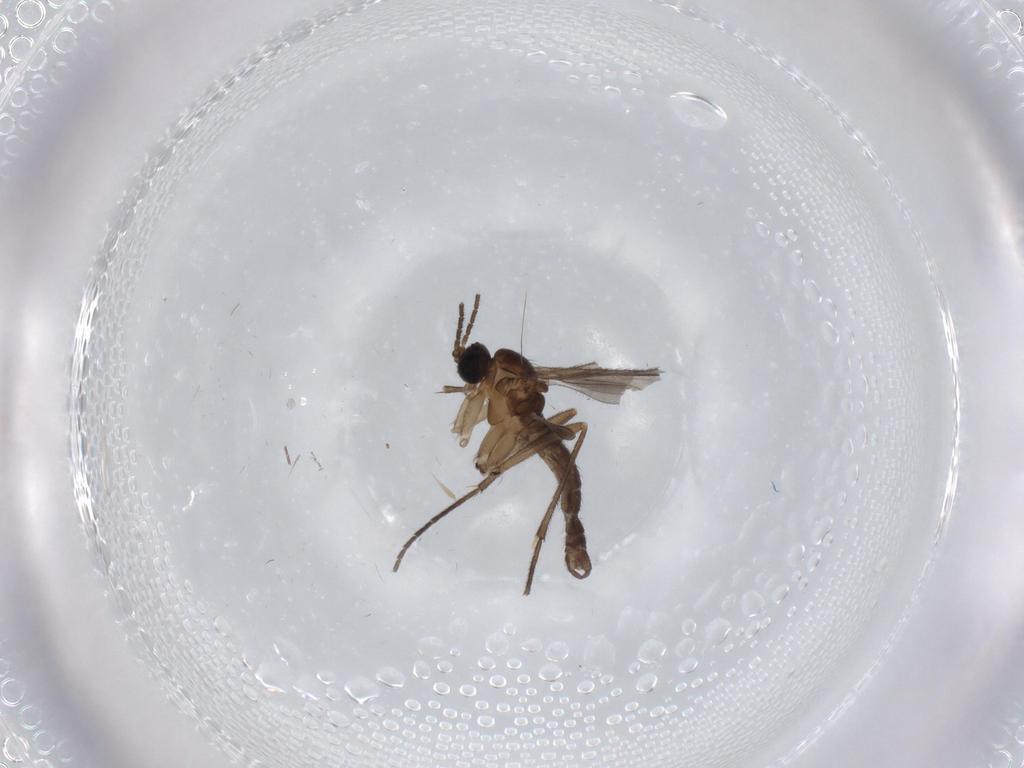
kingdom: Animalia
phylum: Arthropoda
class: Insecta
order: Diptera
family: Sciaridae
